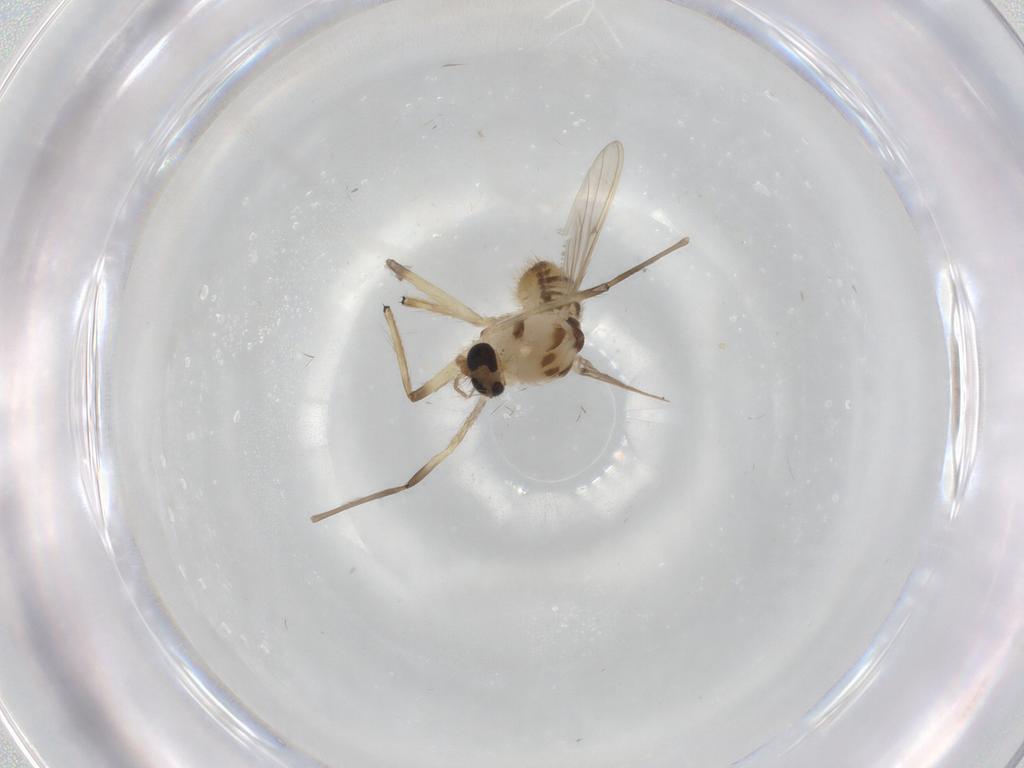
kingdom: Animalia
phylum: Arthropoda
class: Insecta
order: Diptera
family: Chironomidae
